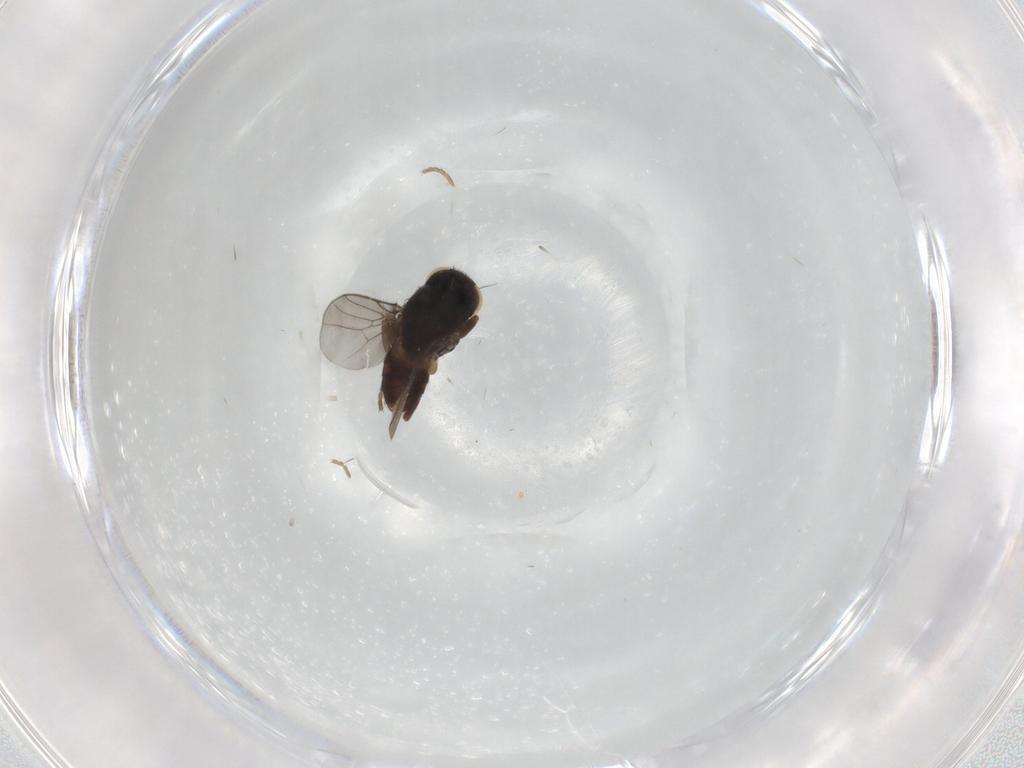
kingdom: Animalia
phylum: Arthropoda
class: Insecta
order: Diptera
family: Chloropidae
